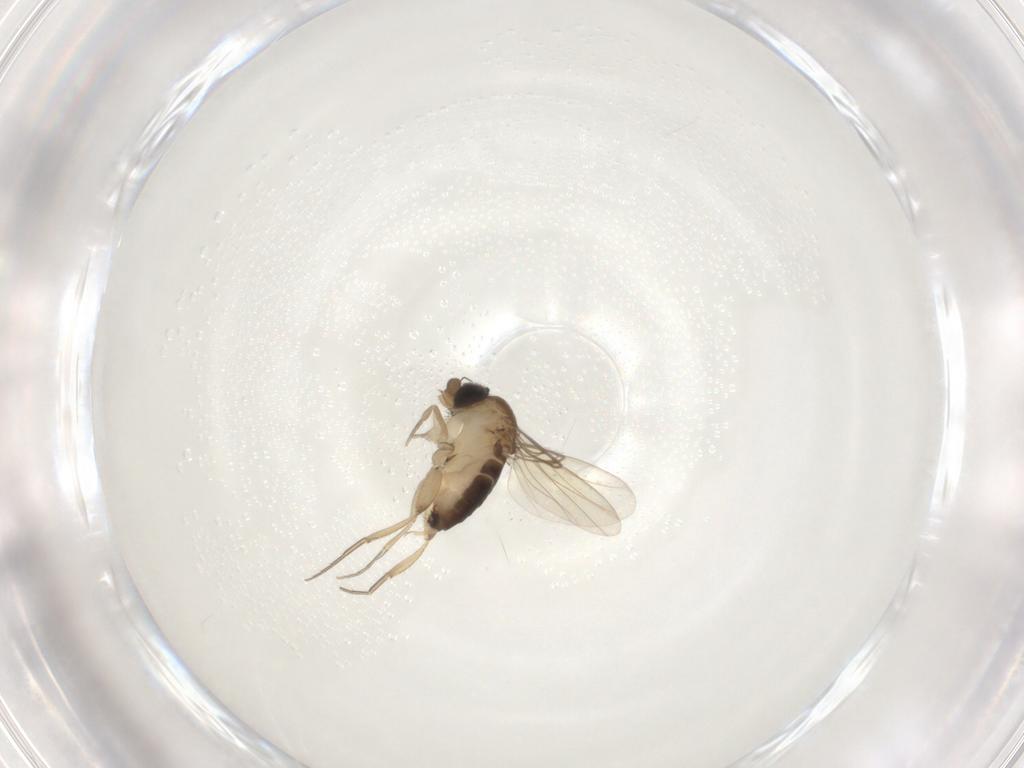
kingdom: Animalia
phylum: Arthropoda
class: Insecta
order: Diptera
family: Phoridae
